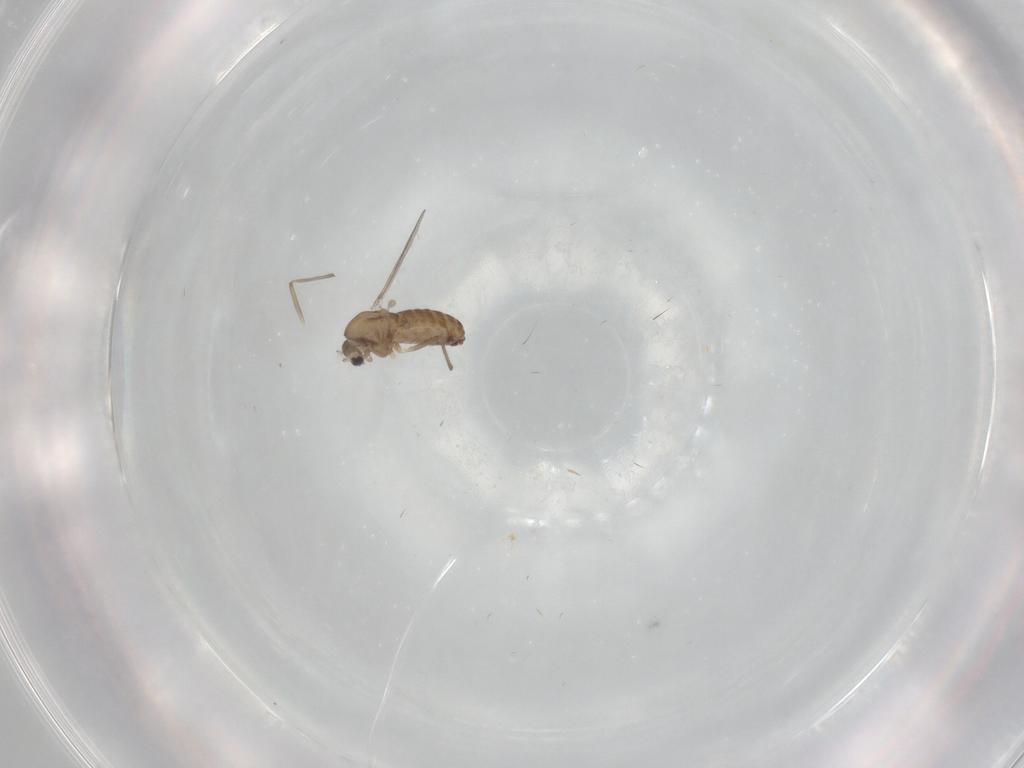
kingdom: Animalia
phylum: Arthropoda
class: Insecta
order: Diptera
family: Chironomidae
